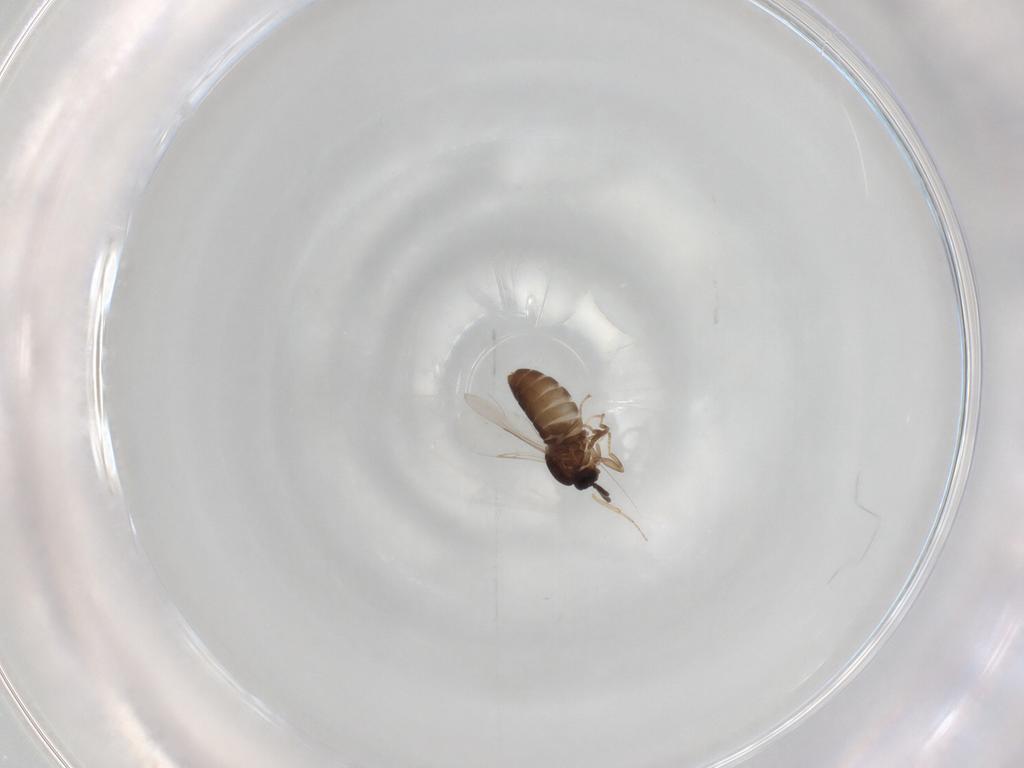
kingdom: Animalia
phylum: Arthropoda
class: Insecta
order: Diptera
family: Scatopsidae
